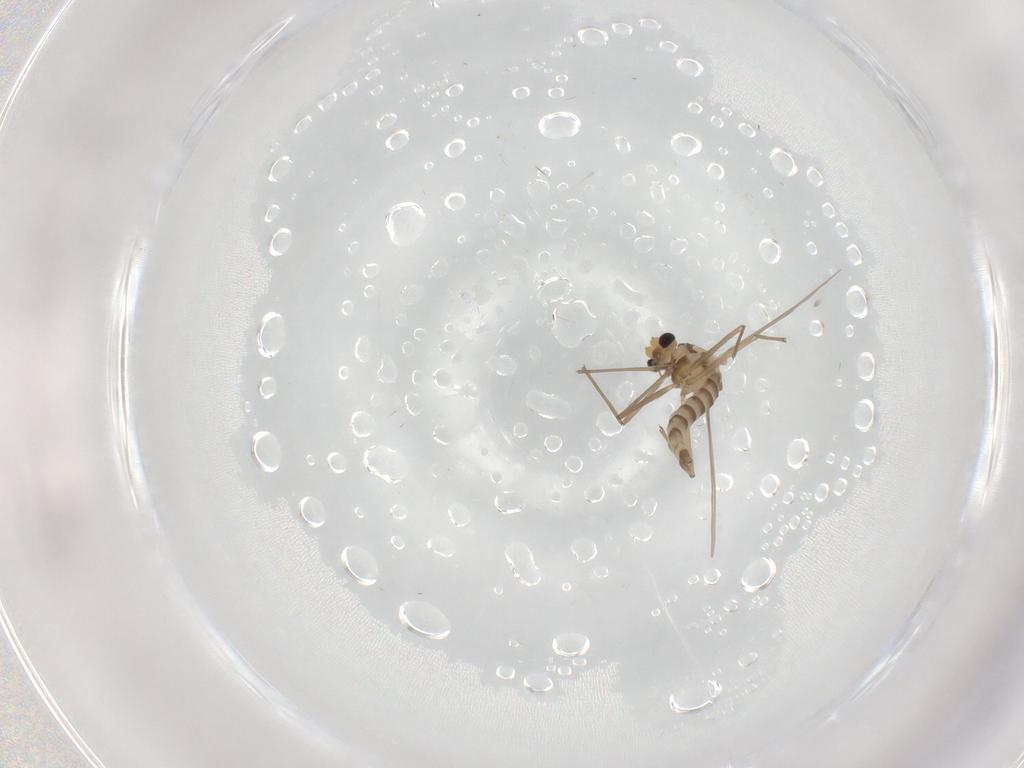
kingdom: Animalia
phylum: Arthropoda
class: Insecta
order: Diptera
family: Chironomidae
